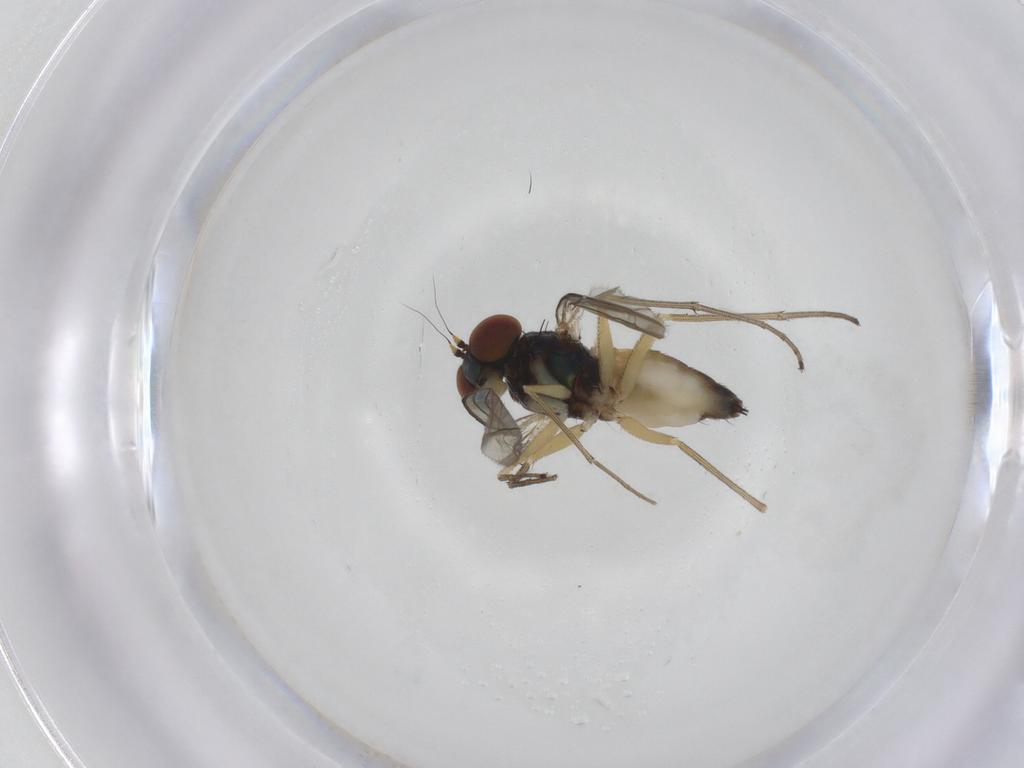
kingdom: Animalia
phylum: Arthropoda
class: Insecta
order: Diptera
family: Dolichopodidae
